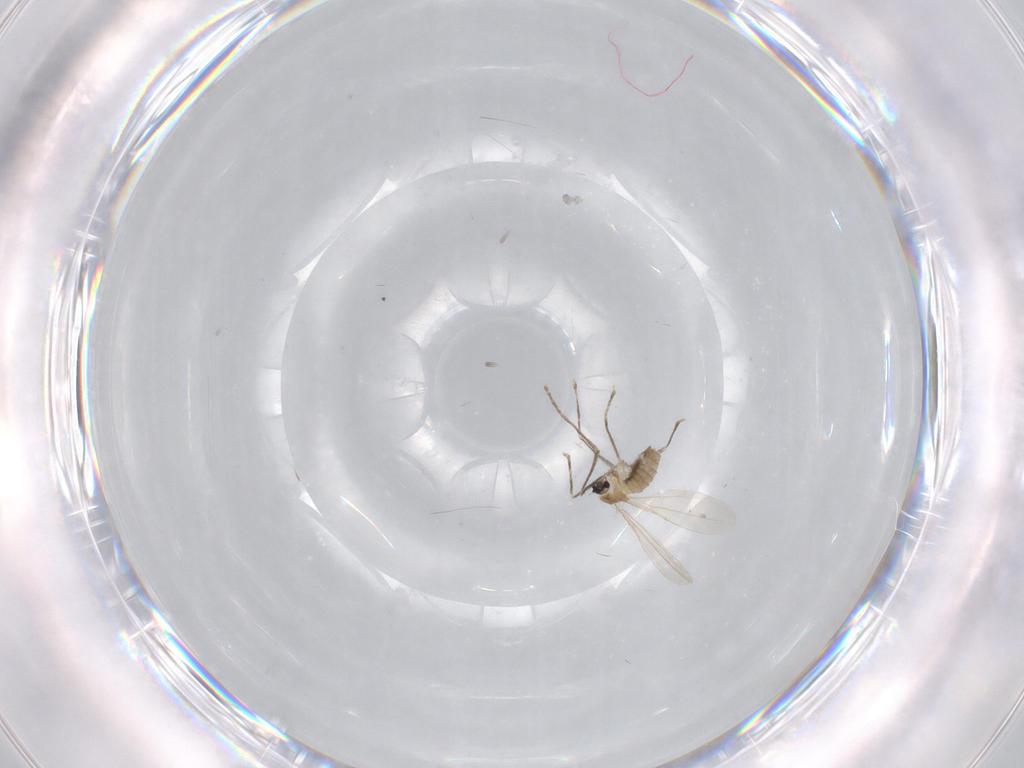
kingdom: Animalia
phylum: Arthropoda
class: Insecta
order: Diptera
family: Cecidomyiidae
